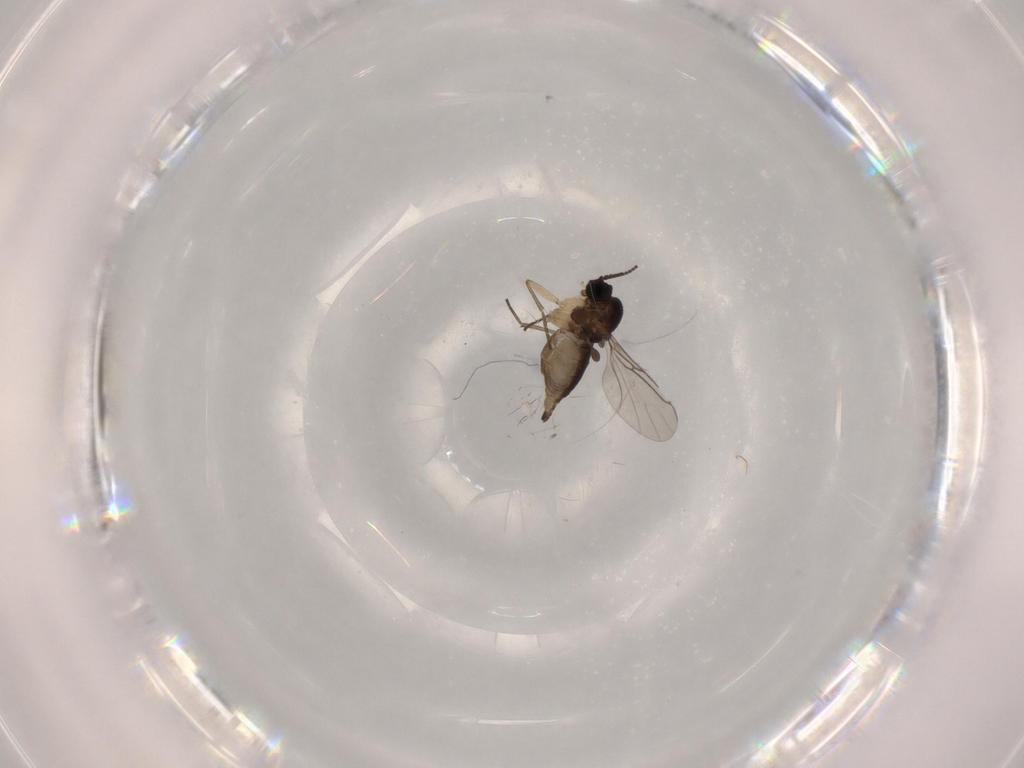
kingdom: Animalia
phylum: Arthropoda
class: Insecta
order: Diptera
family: Sciaridae
